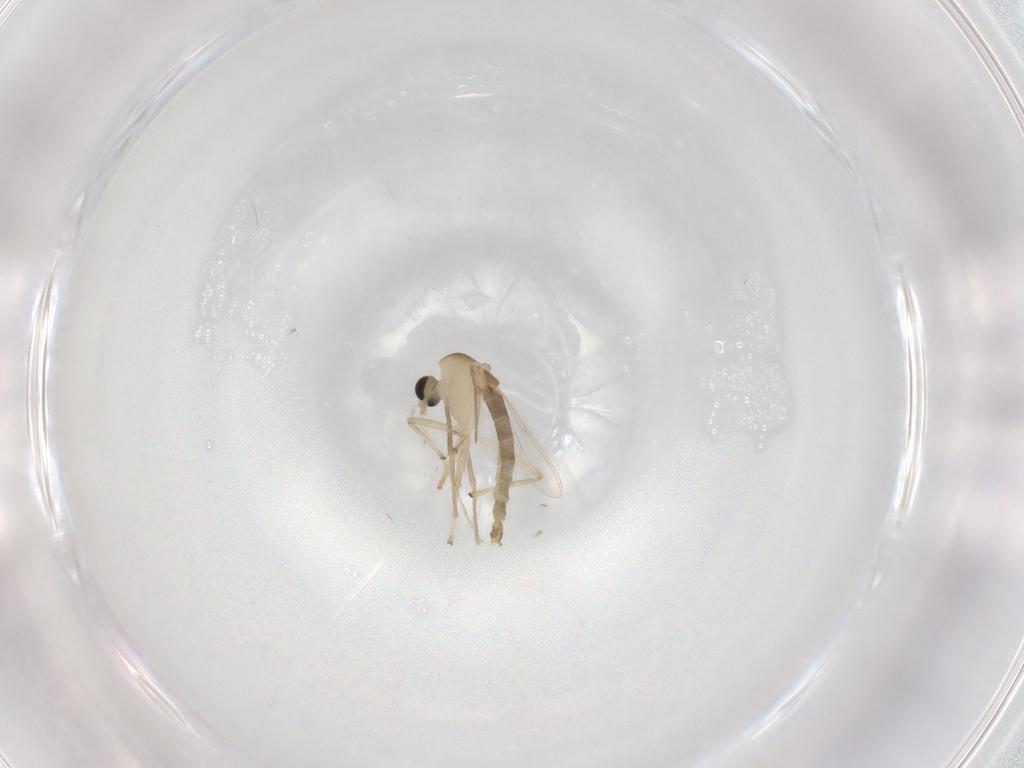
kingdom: Animalia
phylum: Arthropoda
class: Insecta
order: Diptera
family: Chironomidae
